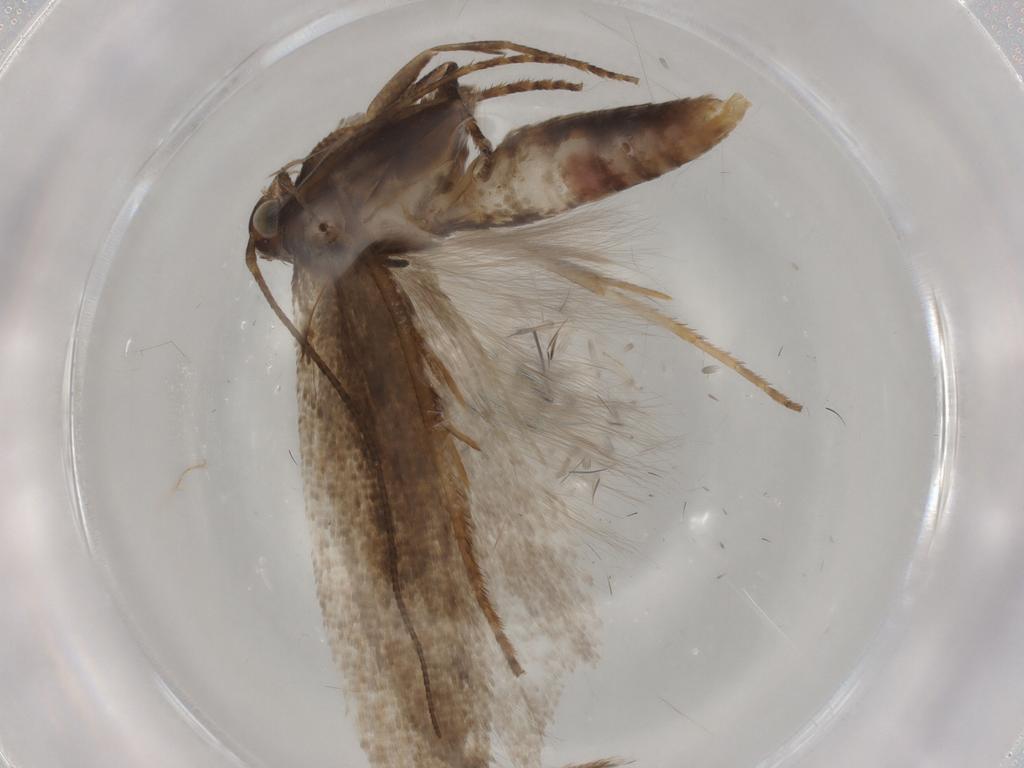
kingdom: Animalia
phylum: Arthropoda
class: Insecta
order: Lepidoptera
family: Gelechiidae
